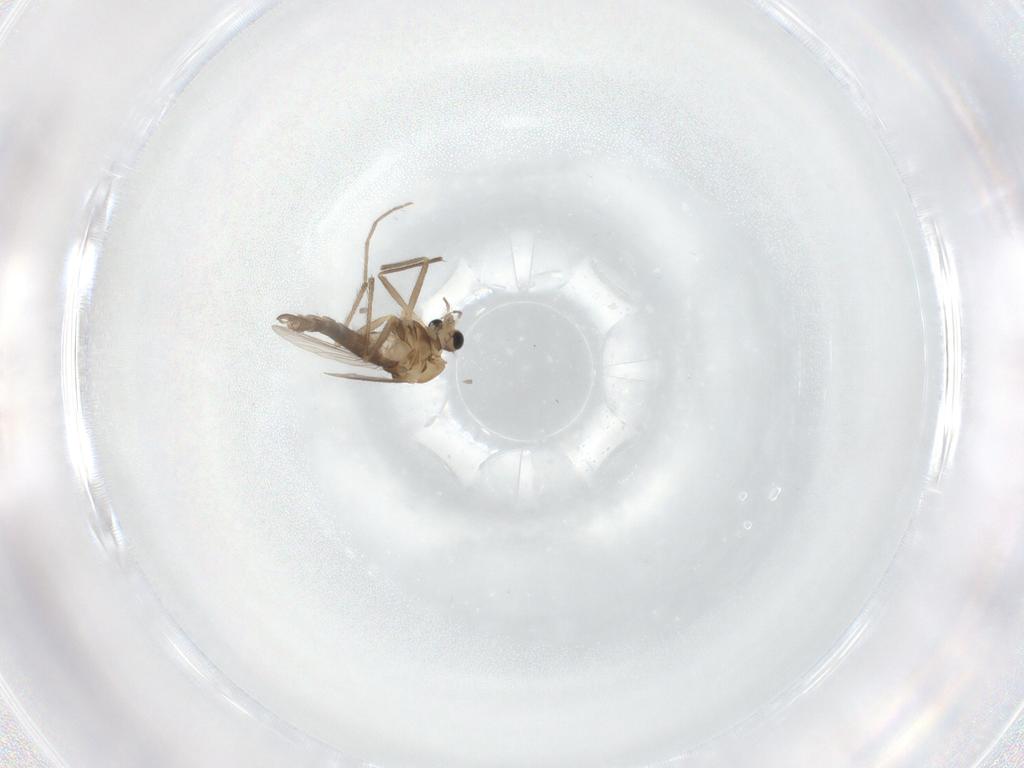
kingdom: Animalia
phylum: Arthropoda
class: Insecta
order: Diptera
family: Chironomidae
